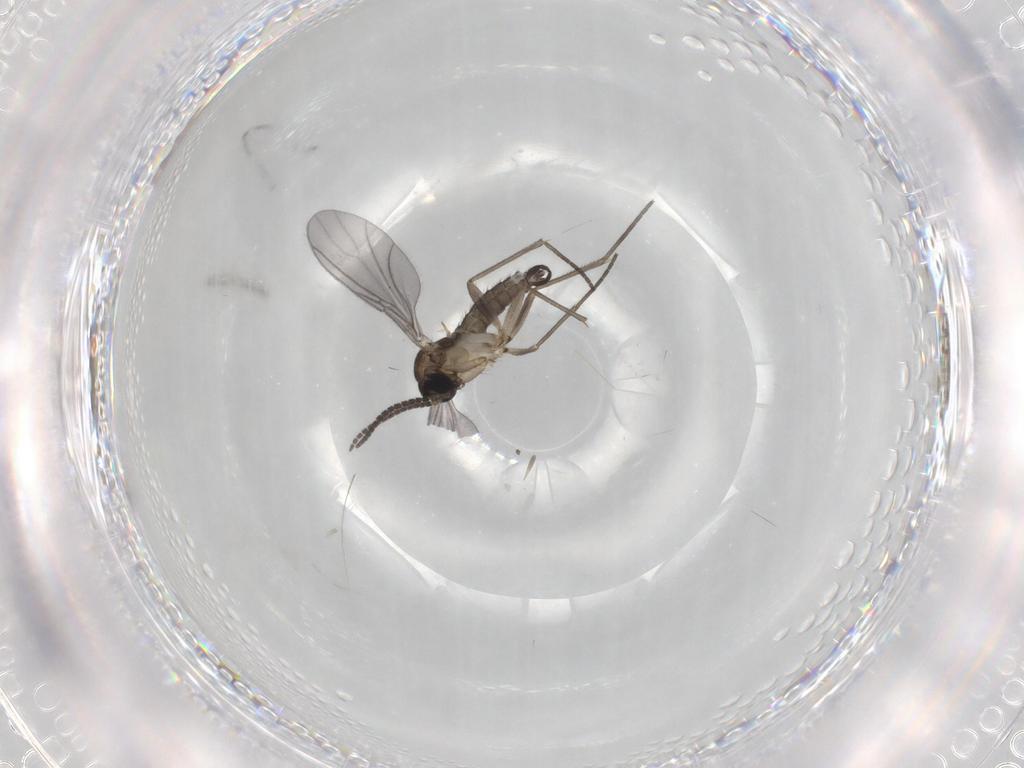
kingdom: Animalia
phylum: Arthropoda
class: Insecta
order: Diptera
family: Sciaridae
